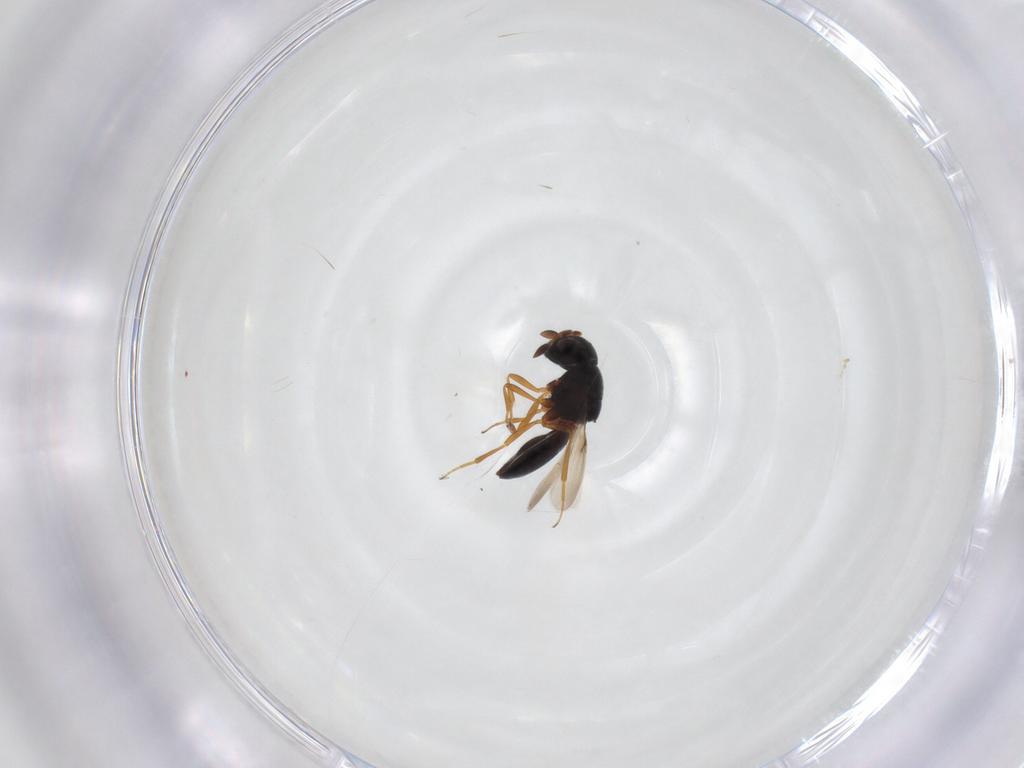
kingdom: Animalia
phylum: Arthropoda
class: Insecta
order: Hymenoptera
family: Scelionidae
